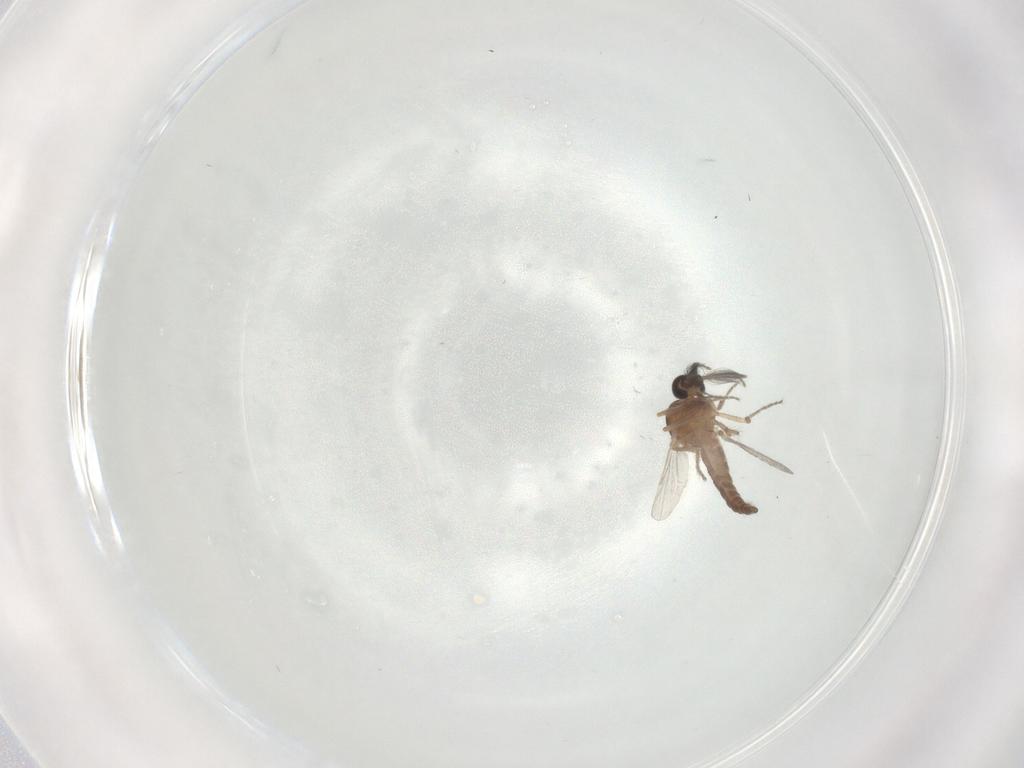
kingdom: Animalia
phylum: Arthropoda
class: Insecta
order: Diptera
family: Ceratopogonidae
